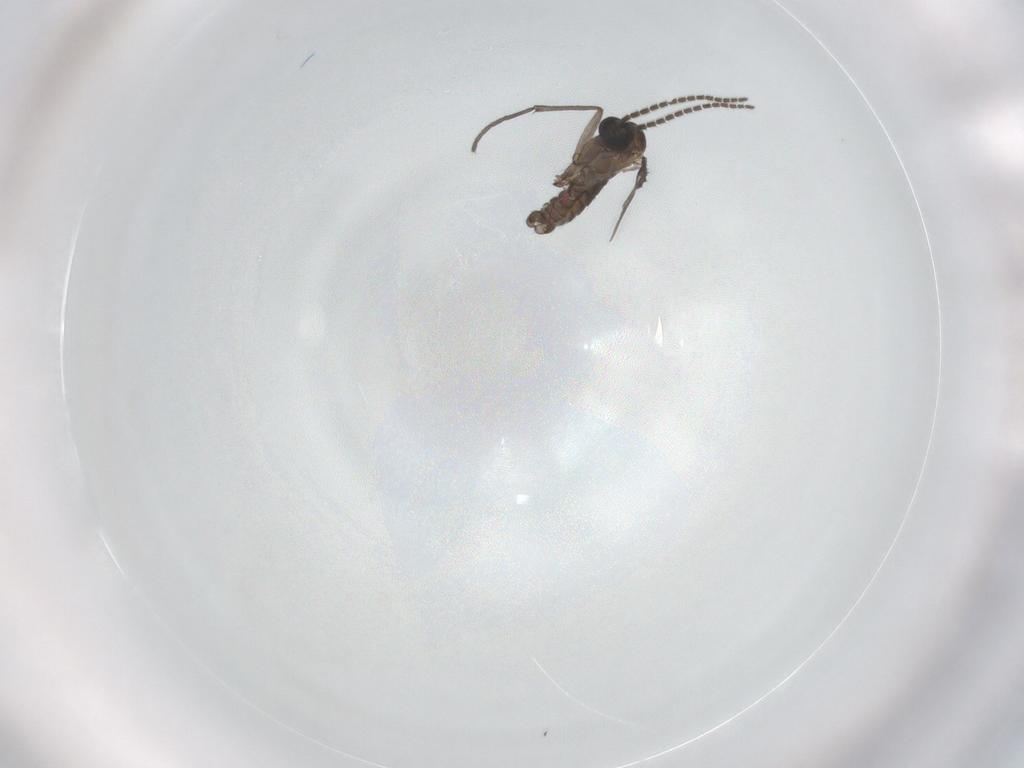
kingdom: Animalia
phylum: Arthropoda
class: Insecta
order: Diptera
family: Sciaridae
